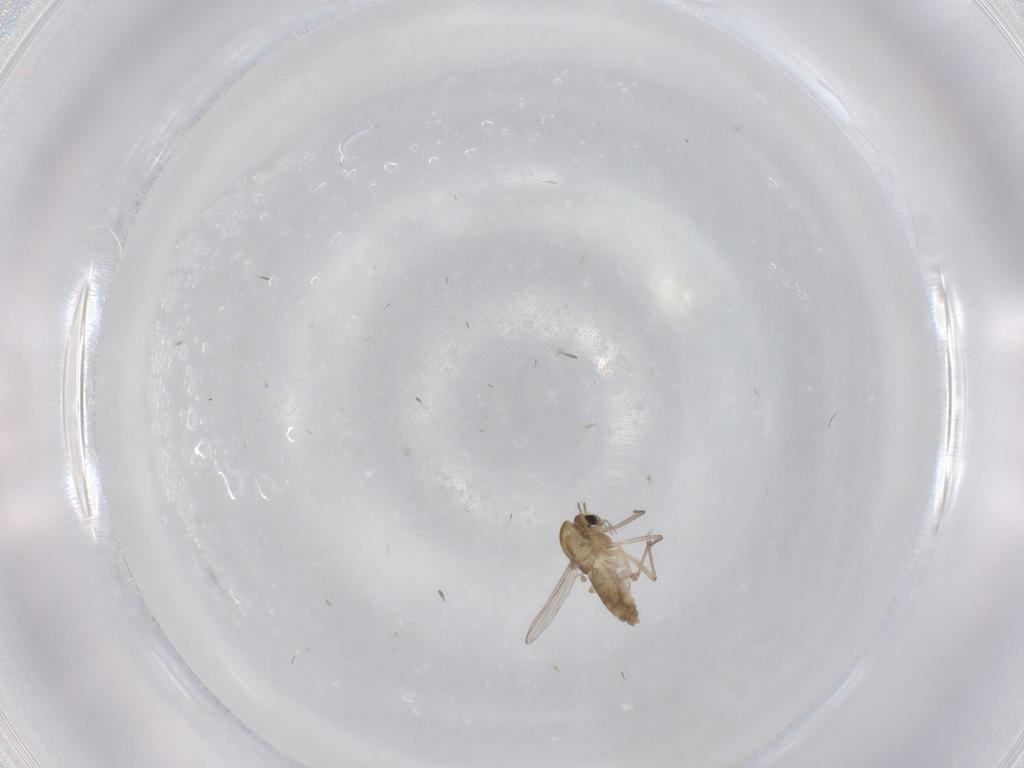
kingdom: Animalia
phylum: Arthropoda
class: Insecta
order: Diptera
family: Chironomidae
